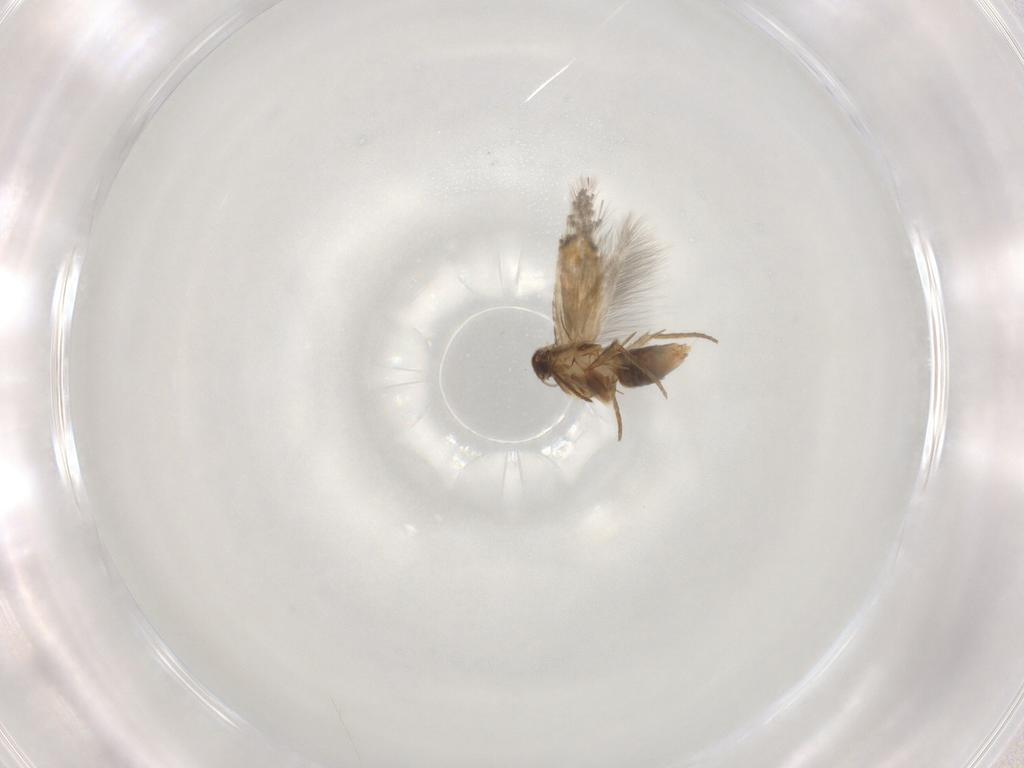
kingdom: Animalia
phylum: Arthropoda
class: Insecta
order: Lepidoptera
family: Heliozelidae
